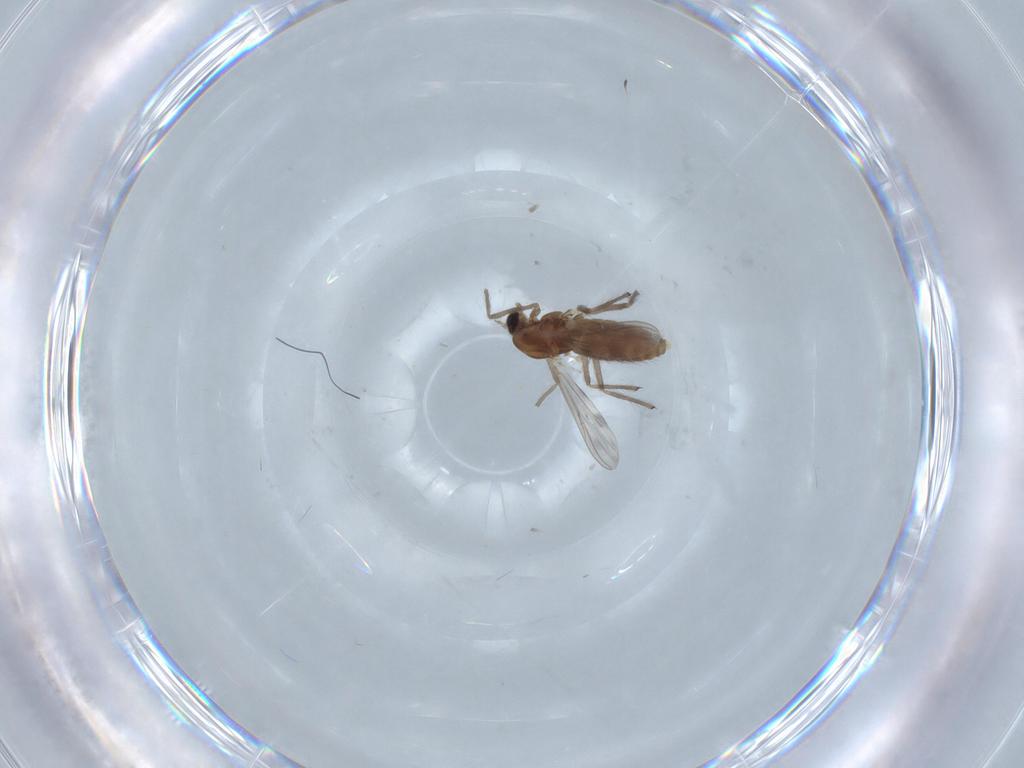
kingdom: Animalia
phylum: Arthropoda
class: Insecta
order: Diptera
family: Chironomidae
